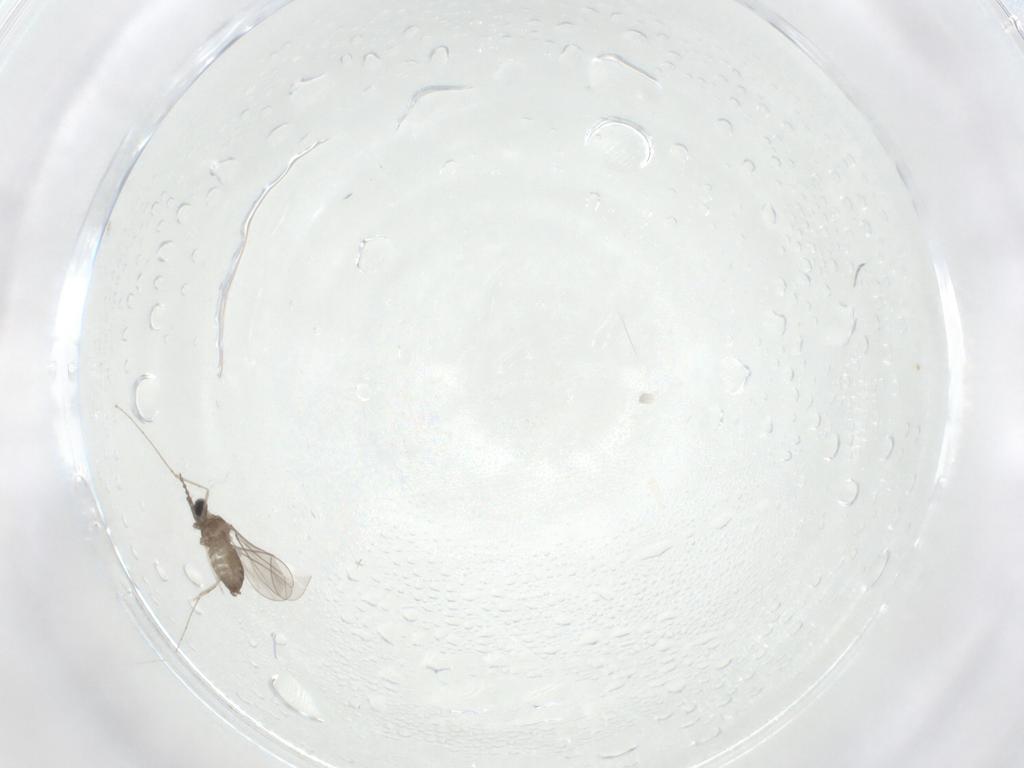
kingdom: Animalia
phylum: Arthropoda
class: Insecta
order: Diptera
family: Cecidomyiidae
